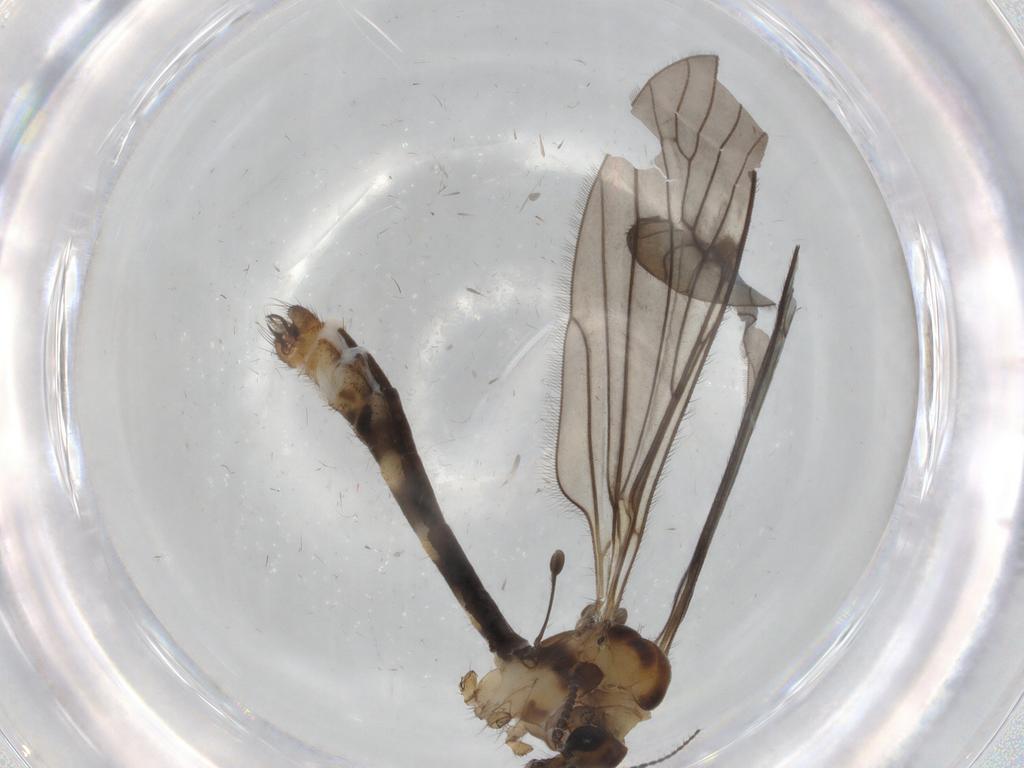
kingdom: Animalia
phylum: Arthropoda
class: Insecta
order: Diptera
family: Limoniidae
